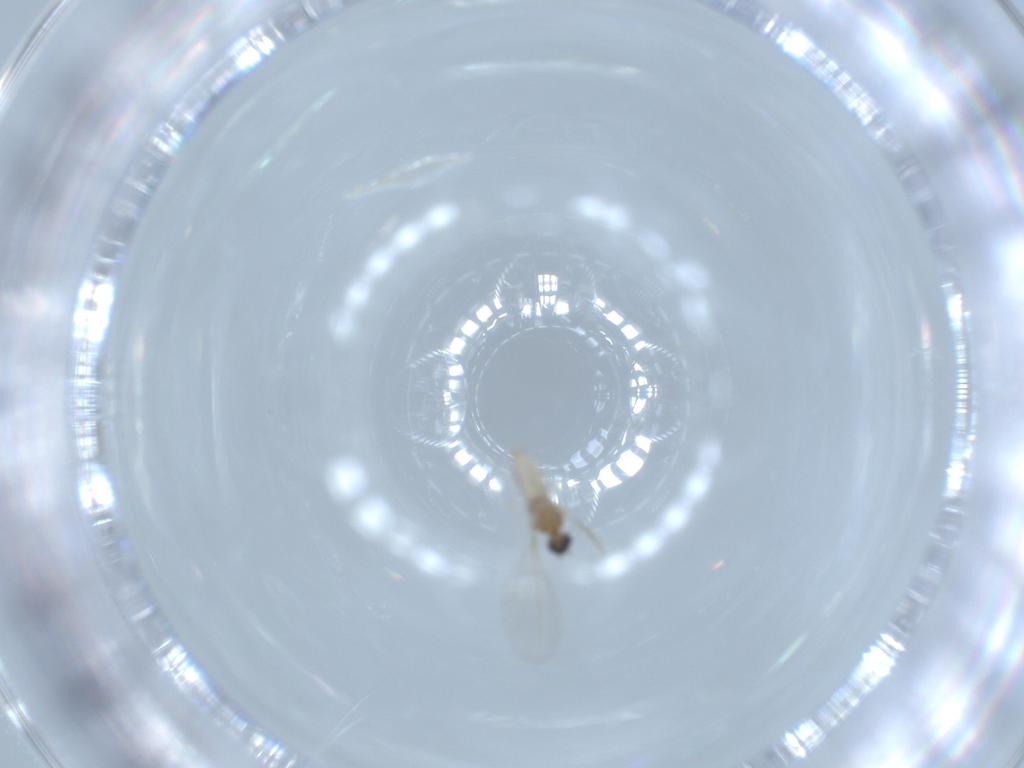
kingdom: Animalia
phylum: Arthropoda
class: Insecta
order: Diptera
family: Cecidomyiidae
